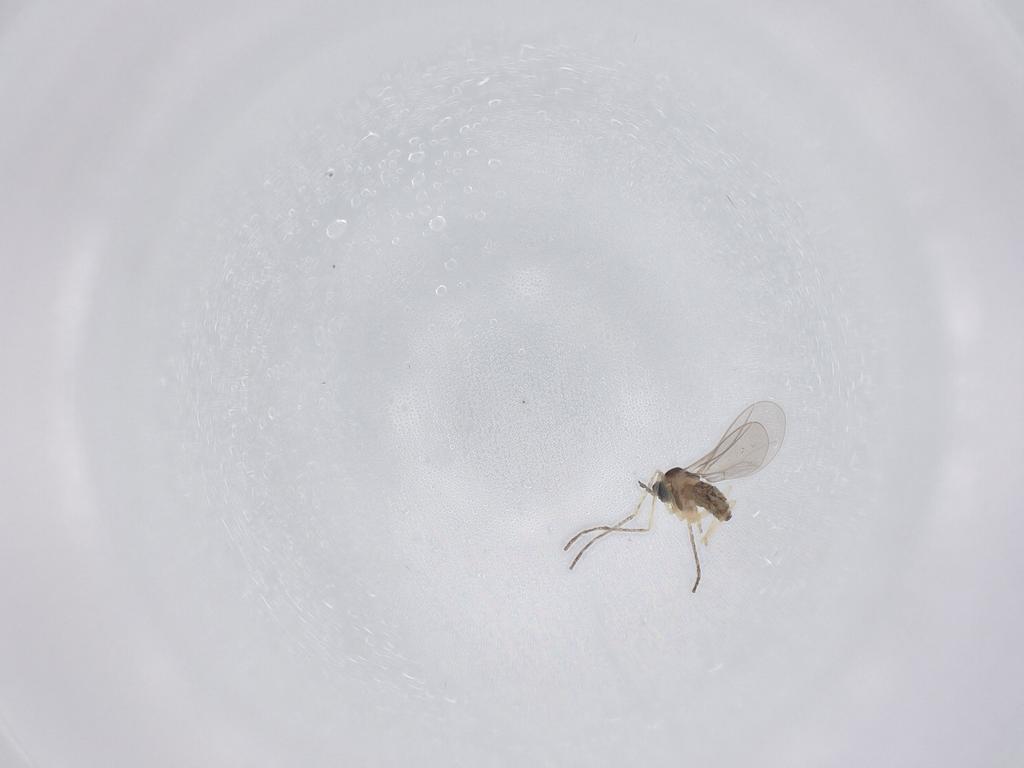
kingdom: Animalia
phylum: Arthropoda
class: Insecta
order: Diptera
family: Cecidomyiidae
